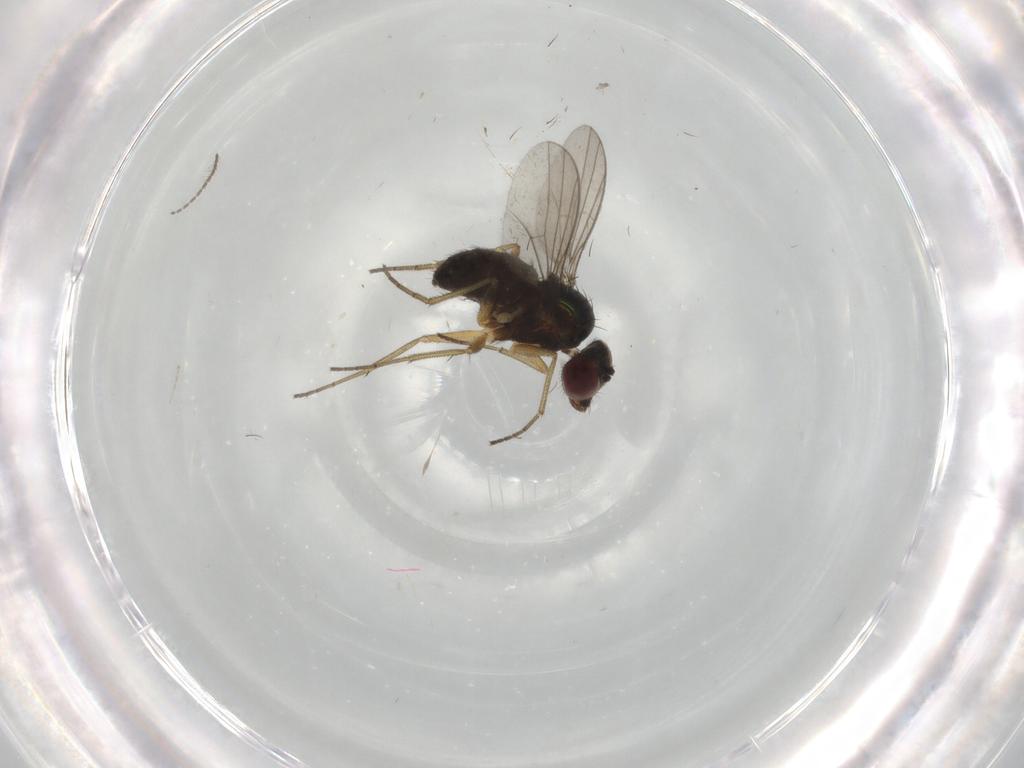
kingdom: Animalia
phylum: Arthropoda
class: Insecta
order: Diptera
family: Dolichopodidae
